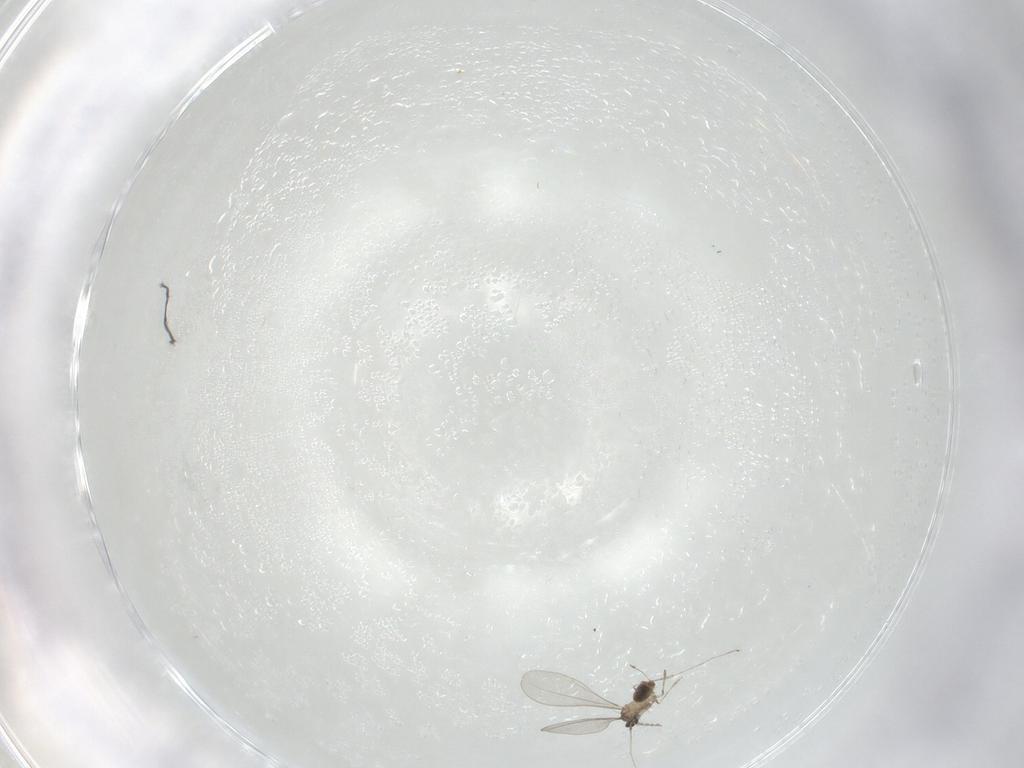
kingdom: Animalia
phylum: Arthropoda
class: Insecta
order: Diptera
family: Cecidomyiidae
